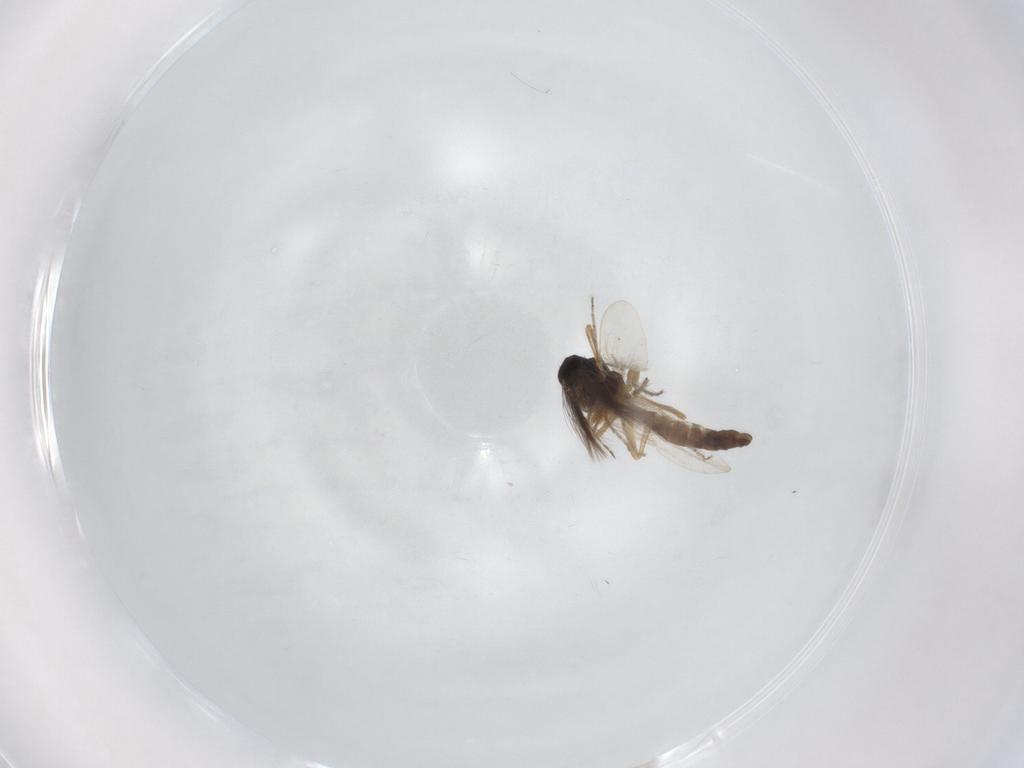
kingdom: Animalia
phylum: Arthropoda
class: Insecta
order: Diptera
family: Ceratopogonidae
